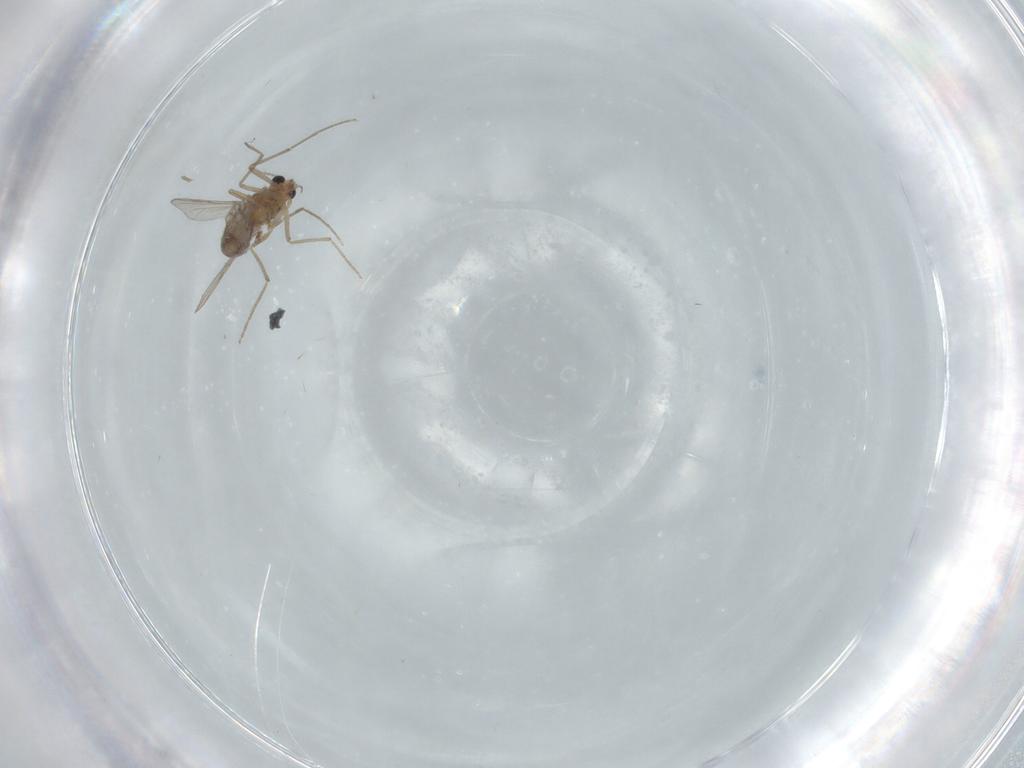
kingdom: Animalia
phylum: Arthropoda
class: Insecta
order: Diptera
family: Chironomidae
